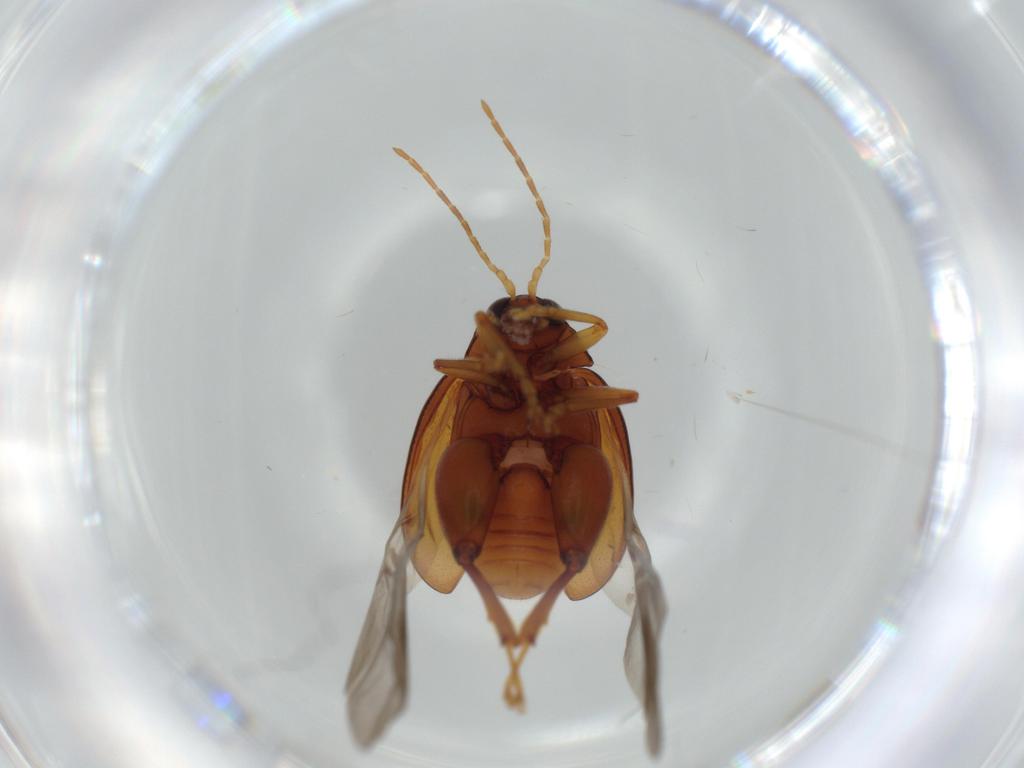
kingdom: Animalia
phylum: Arthropoda
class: Insecta
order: Coleoptera
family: Chrysomelidae
